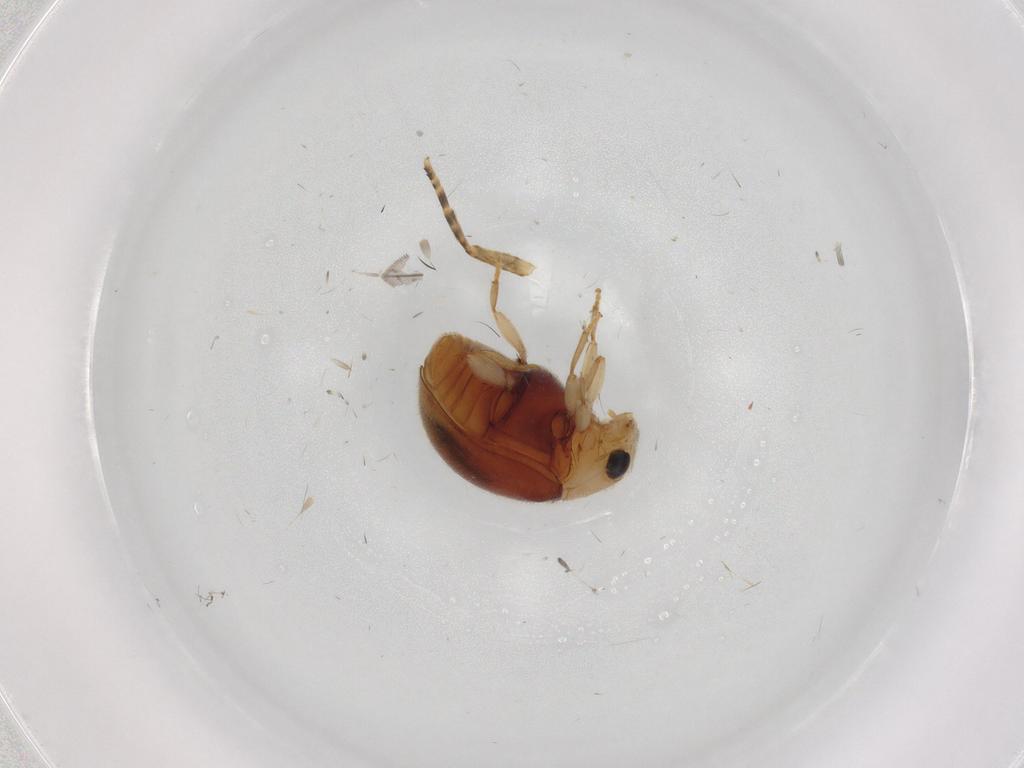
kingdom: Animalia
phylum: Arthropoda
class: Insecta
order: Coleoptera
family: Coccinellidae
